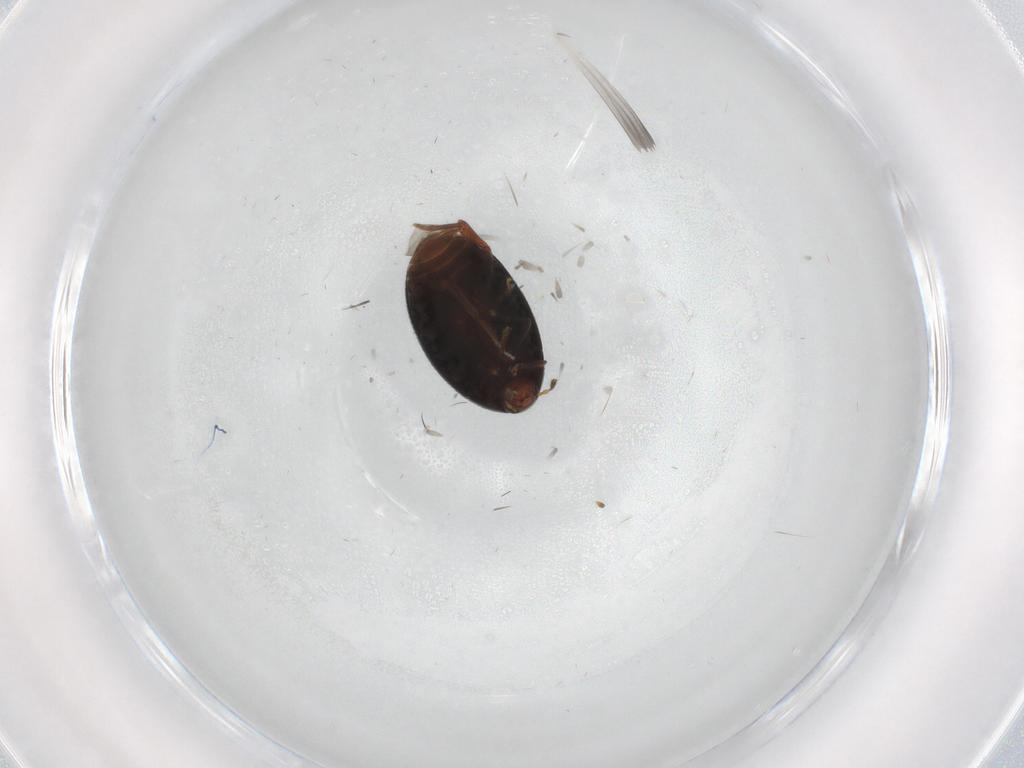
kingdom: Animalia
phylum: Arthropoda
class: Insecta
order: Coleoptera
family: Melandryidae
